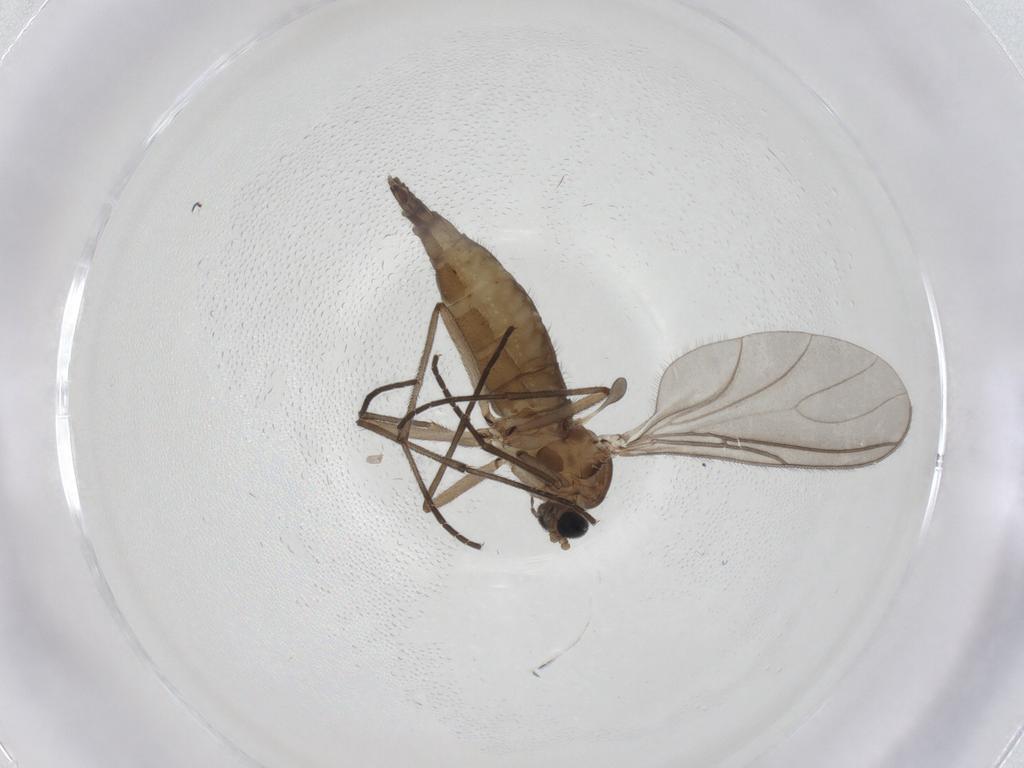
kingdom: Animalia
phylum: Arthropoda
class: Insecta
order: Diptera
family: Sciaridae
